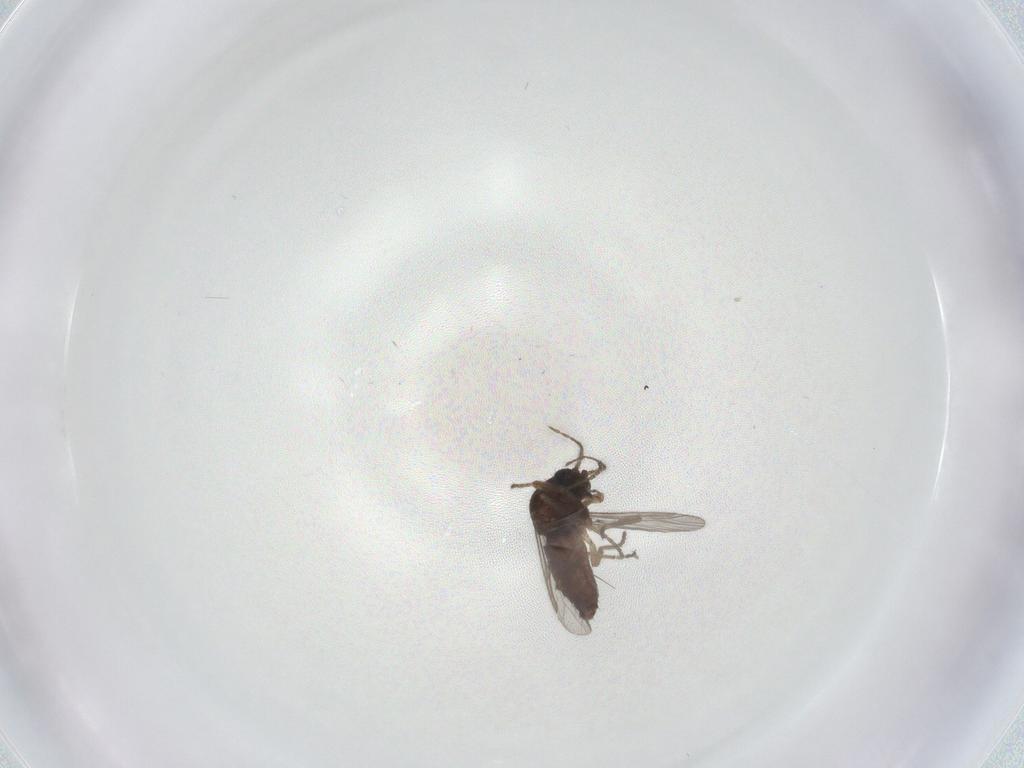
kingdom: Animalia
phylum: Arthropoda
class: Insecta
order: Diptera
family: Ceratopogonidae
